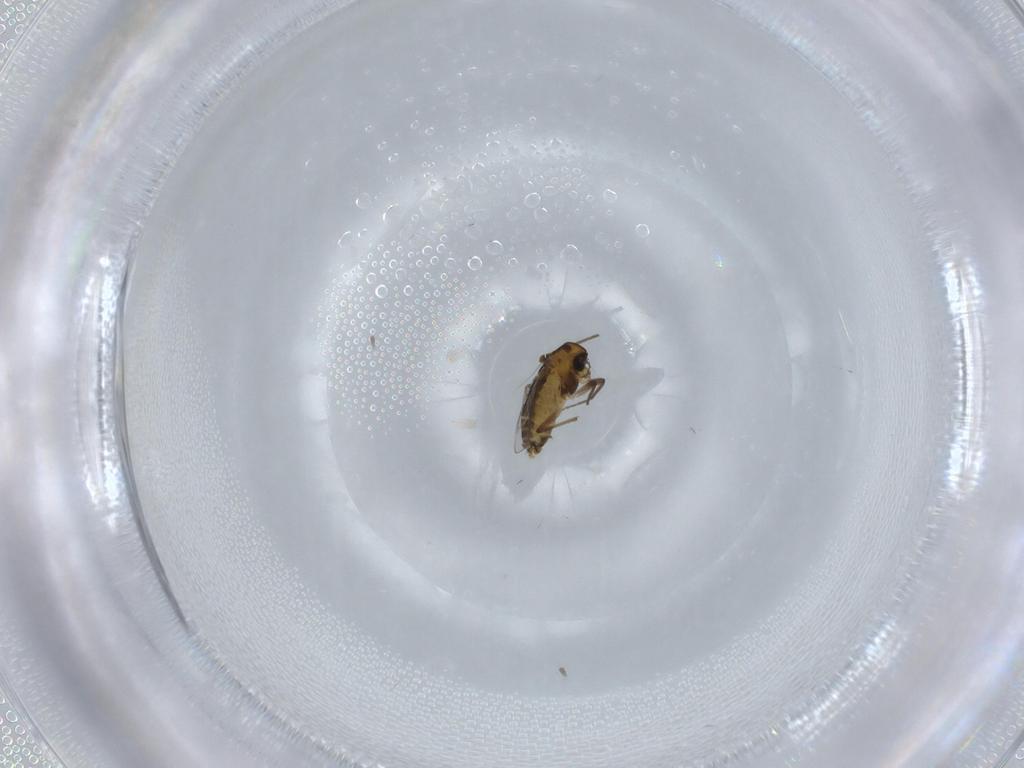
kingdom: Animalia
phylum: Arthropoda
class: Insecta
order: Diptera
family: Chironomidae
